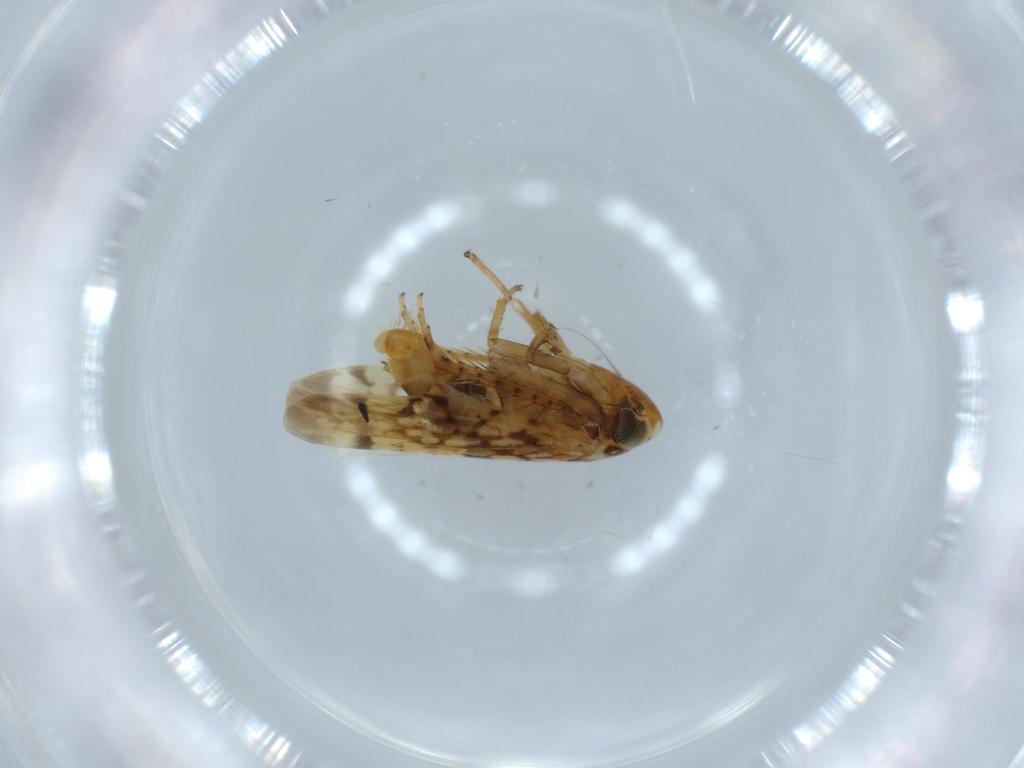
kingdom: Animalia
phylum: Arthropoda
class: Insecta
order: Hemiptera
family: Cicadellidae
